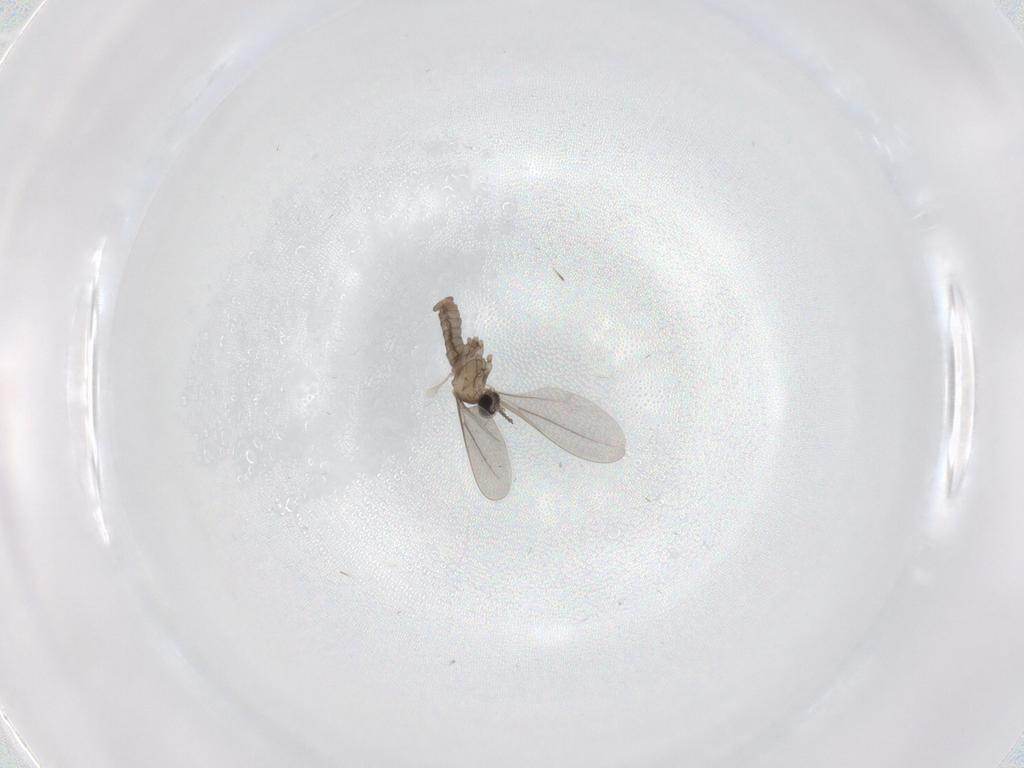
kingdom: Animalia
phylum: Arthropoda
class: Insecta
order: Diptera
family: Cecidomyiidae
